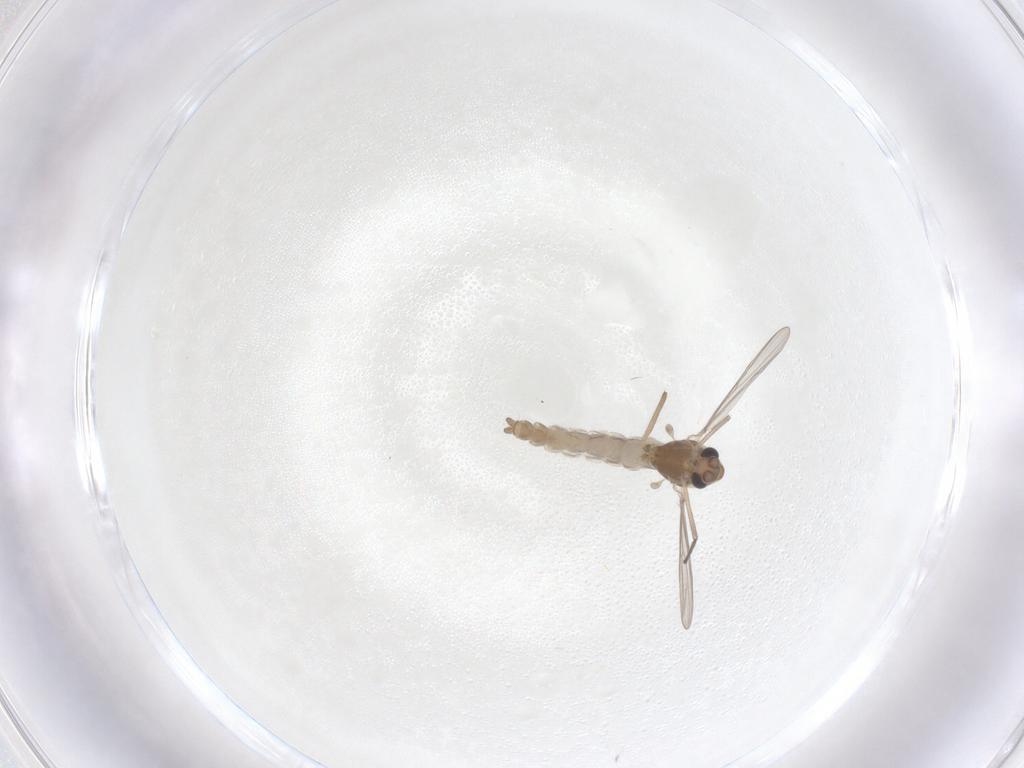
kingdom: Animalia
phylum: Arthropoda
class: Insecta
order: Diptera
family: Chironomidae
